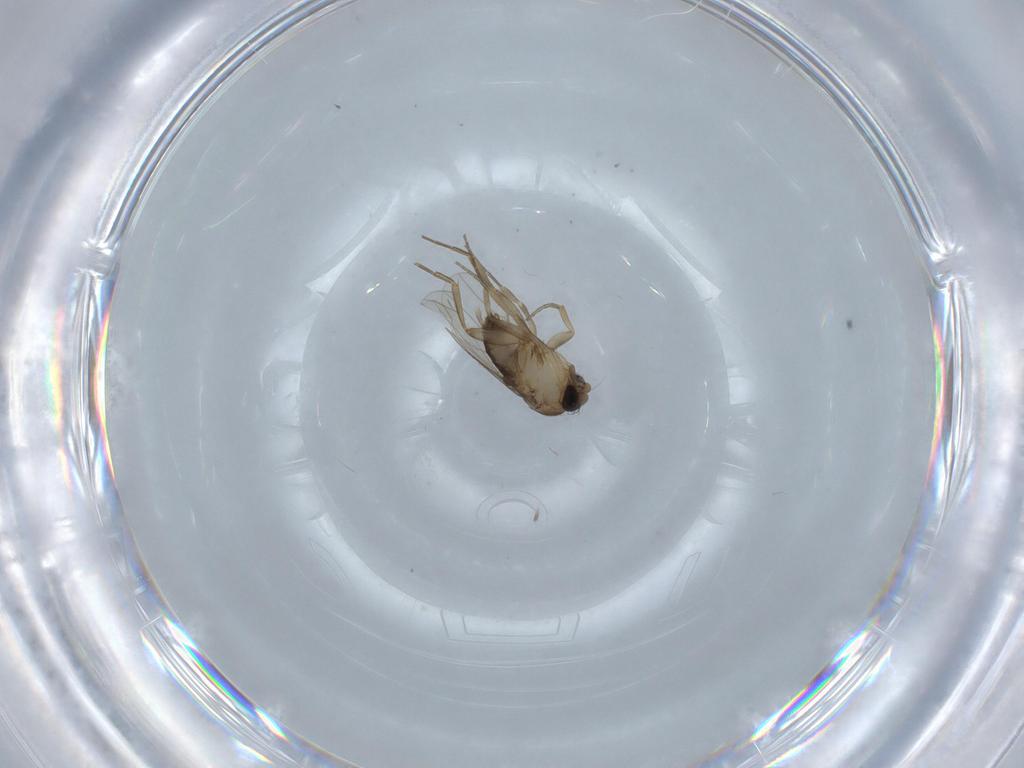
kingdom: Animalia
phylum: Arthropoda
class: Insecta
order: Diptera
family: Phoridae
